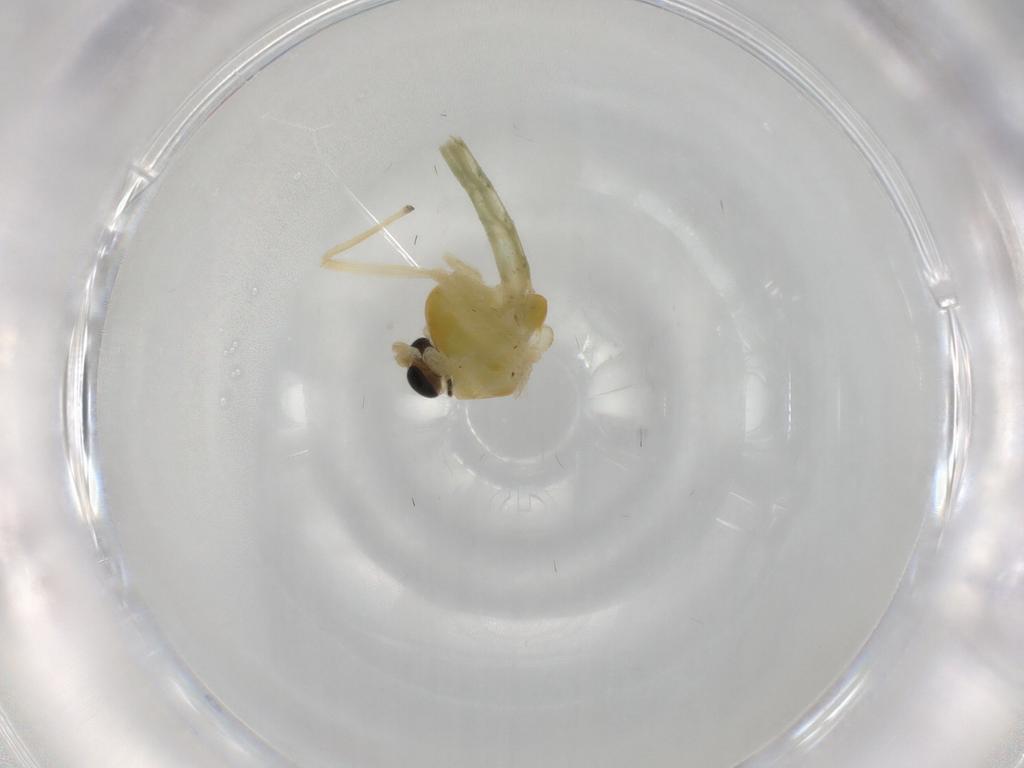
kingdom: Animalia
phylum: Arthropoda
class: Insecta
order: Diptera
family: Chironomidae
